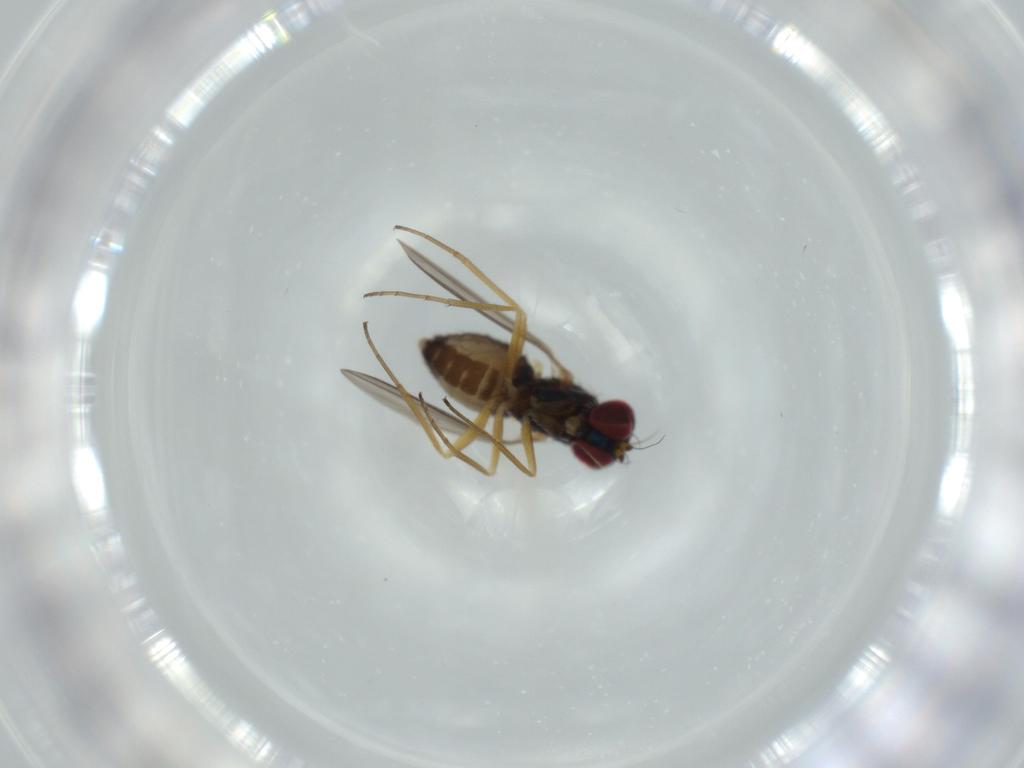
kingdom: Animalia
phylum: Arthropoda
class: Insecta
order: Diptera
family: Dolichopodidae
